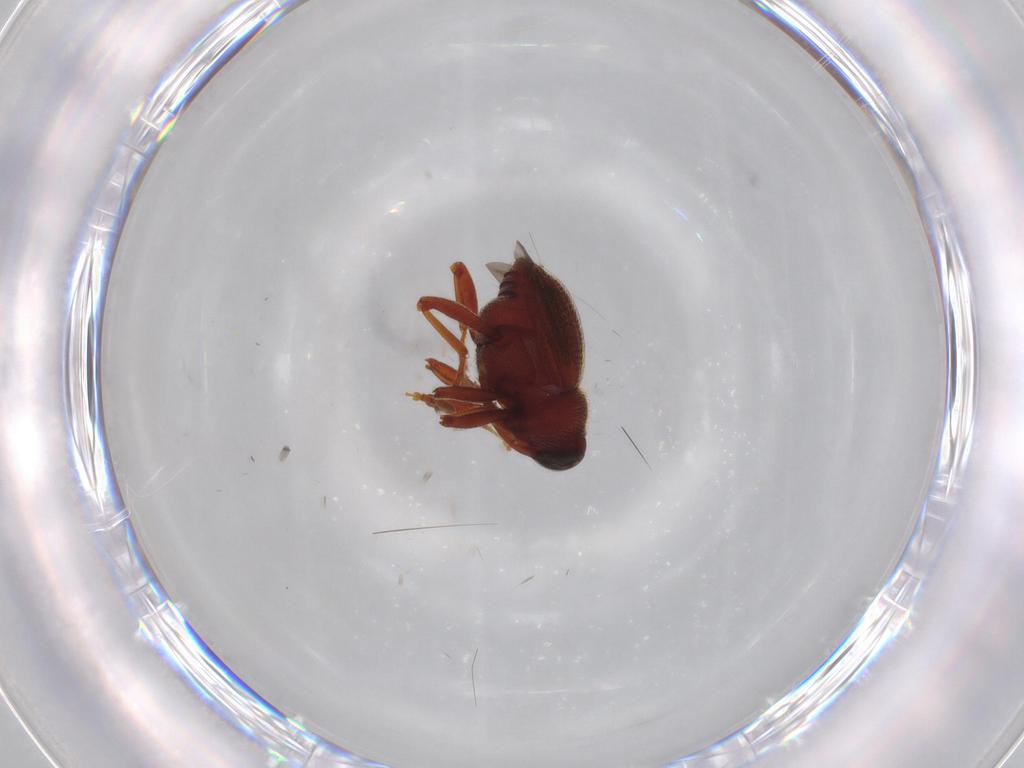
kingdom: Animalia
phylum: Arthropoda
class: Insecta
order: Coleoptera
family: Curculionidae
